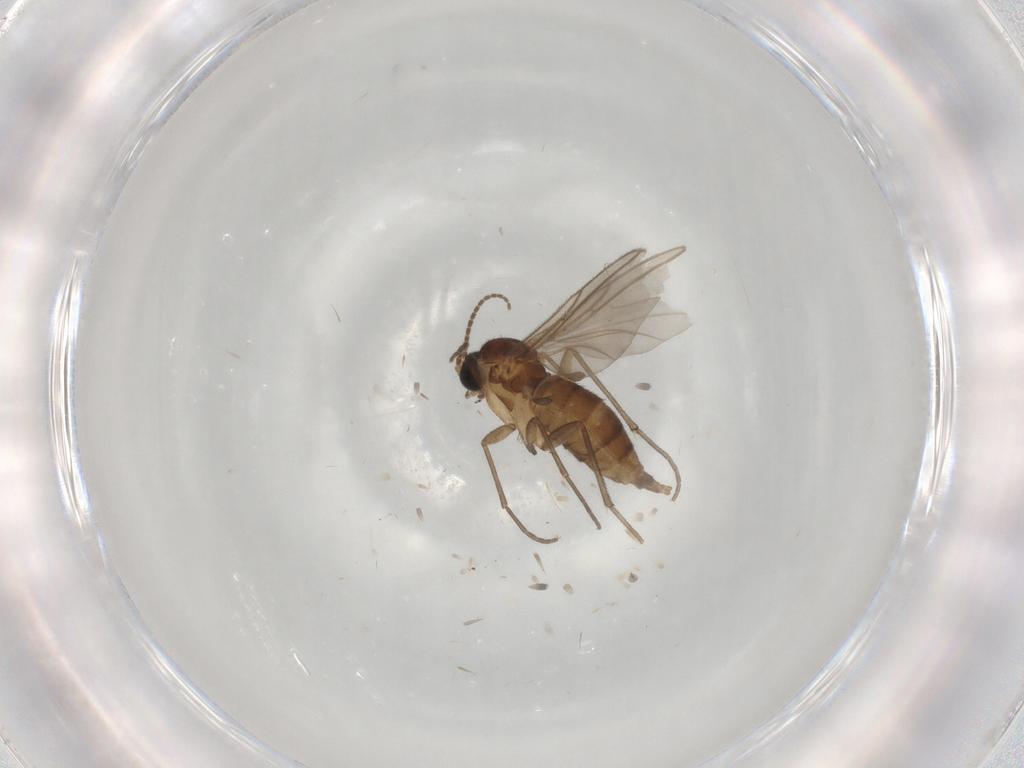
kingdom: Animalia
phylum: Arthropoda
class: Insecta
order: Diptera
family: Sciaridae
